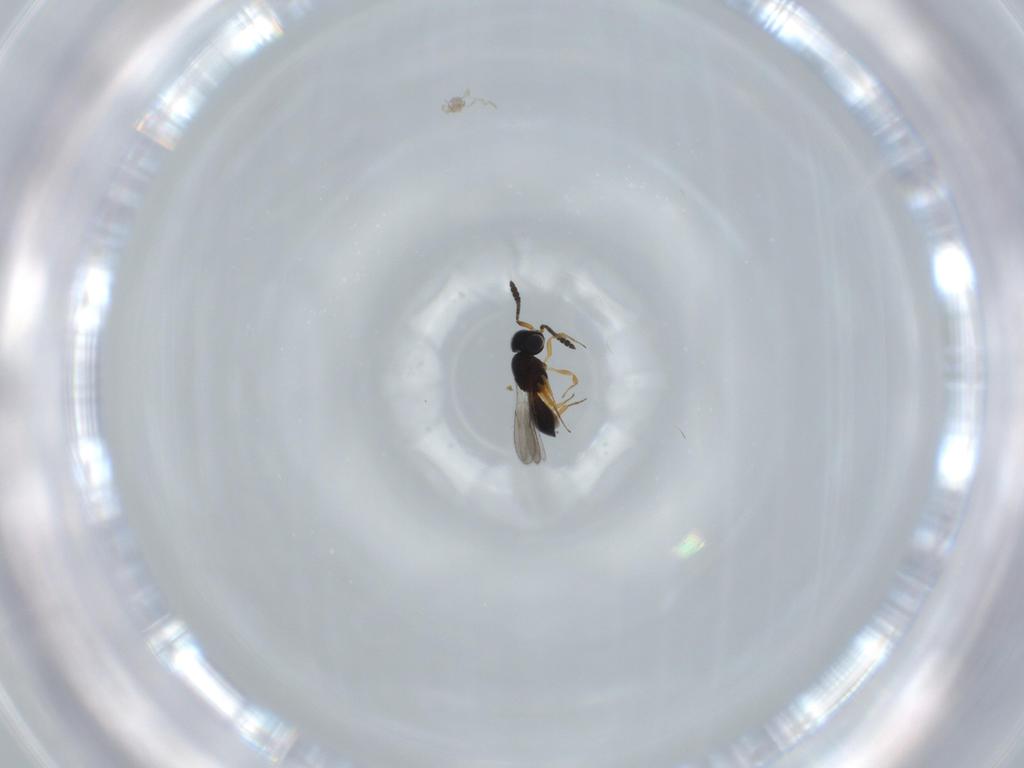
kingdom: Animalia
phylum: Arthropoda
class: Insecta
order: Hymenoptera
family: Scelionidae
